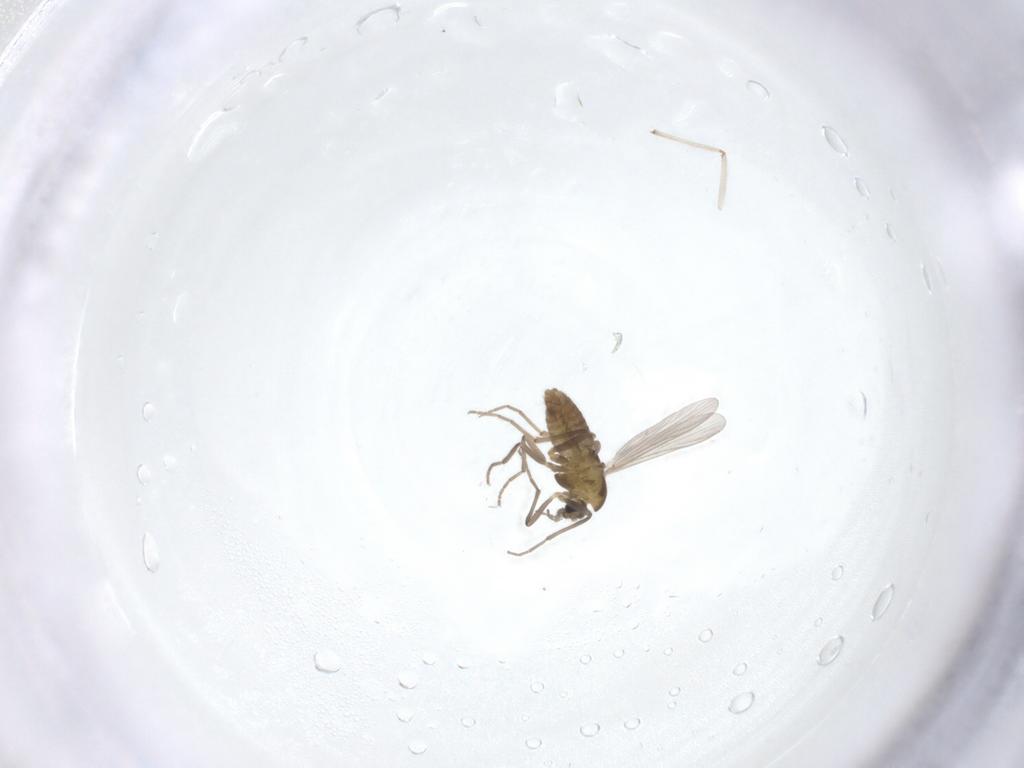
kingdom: Animalia
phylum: Arthropoda
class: Insecta
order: Diptera
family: Chironomidae
